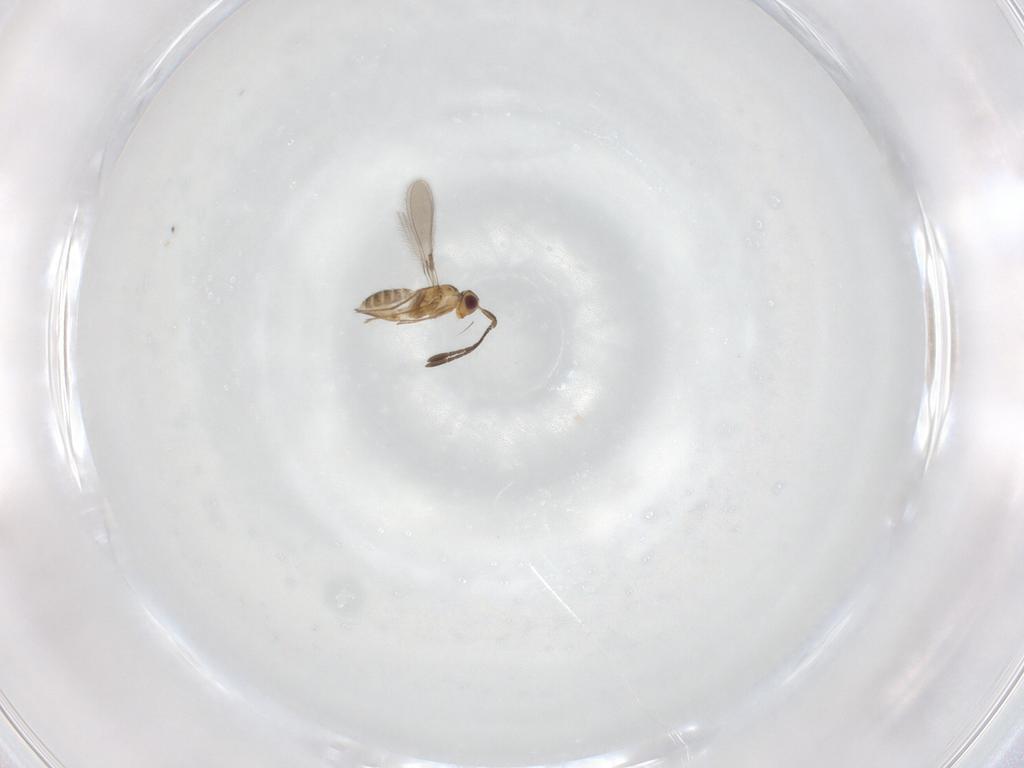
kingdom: Animalia
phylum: Arthropoda
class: Insecta
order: Hymenoptera
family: Mymaridae
